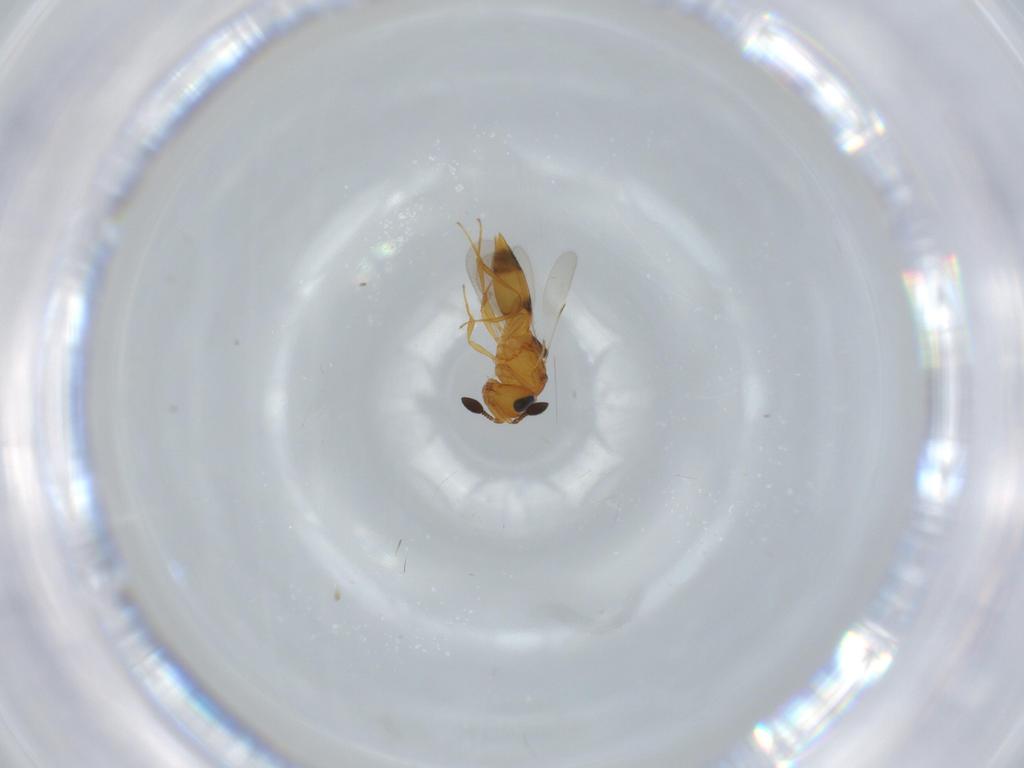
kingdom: Animalia
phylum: Arthropoda
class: Insecta
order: Hymenoptera
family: Scelionidae
